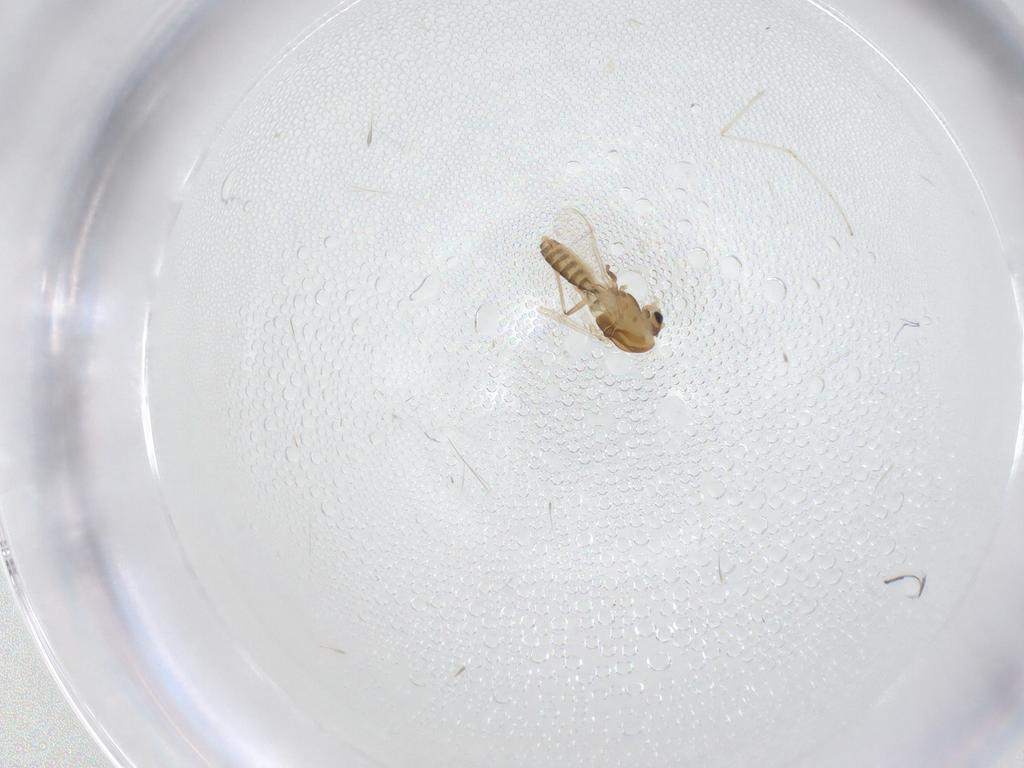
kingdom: Animalia
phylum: Arthropoda
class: Insecta
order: Diptera
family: Chironomidae
